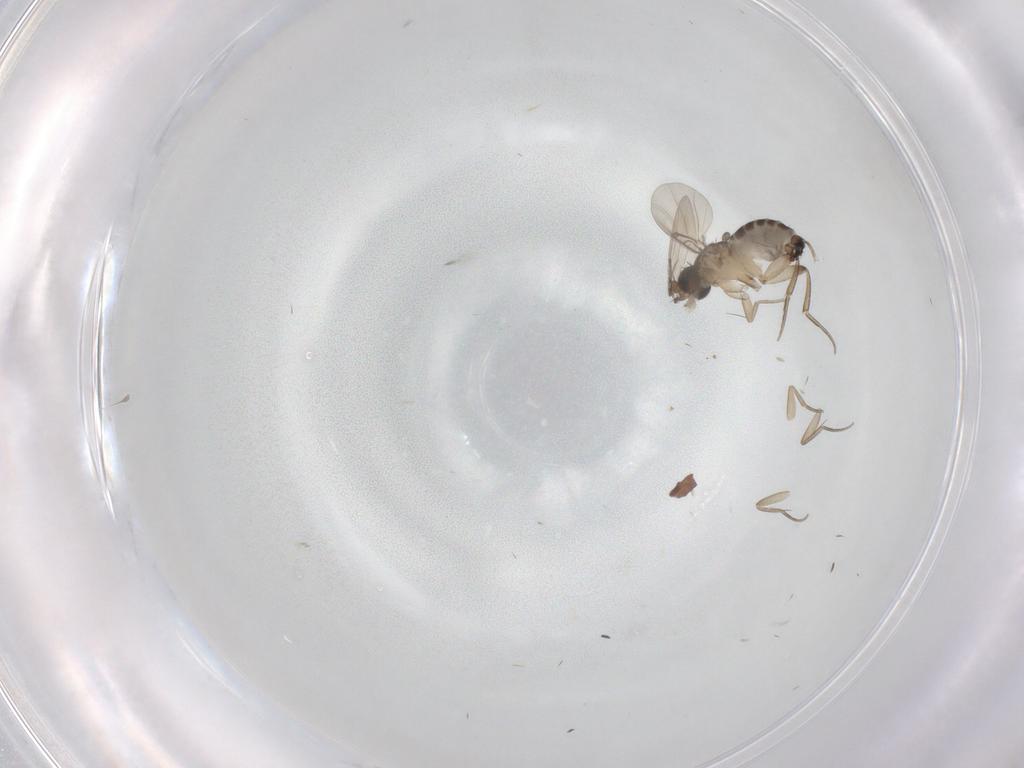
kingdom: Animalia
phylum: Arthropoda
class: Insecta
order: Diptera
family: Phoridae
